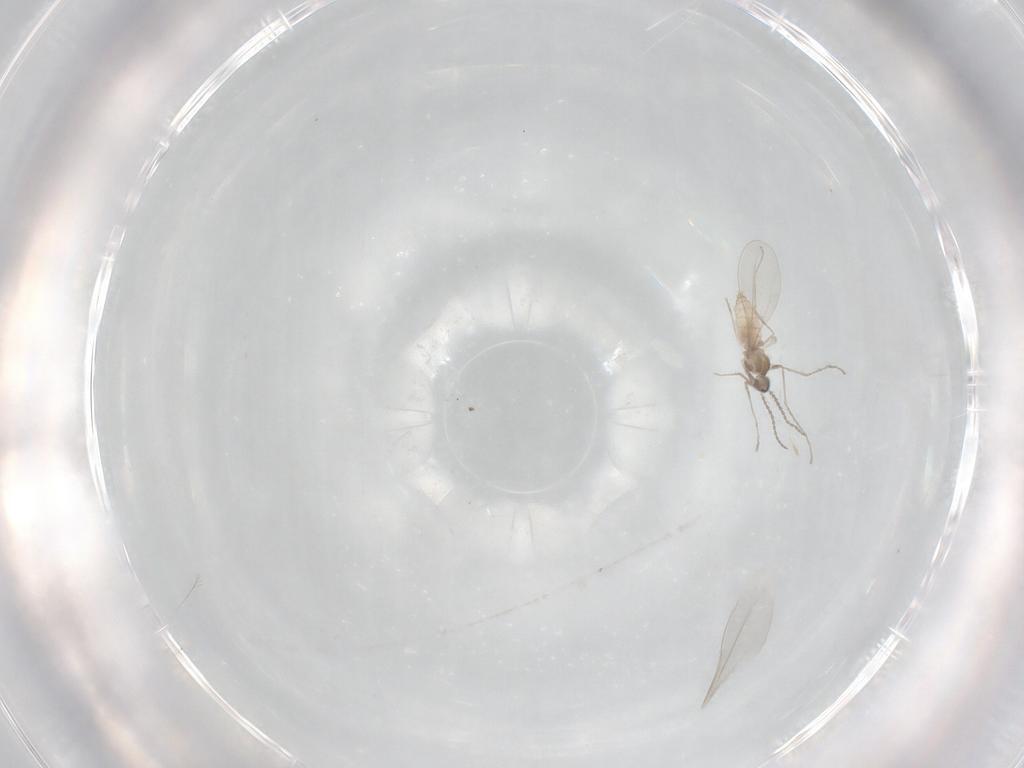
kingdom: Animalia
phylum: Arthropoda
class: Insecta
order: Diptera
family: Cecidomyiidae
